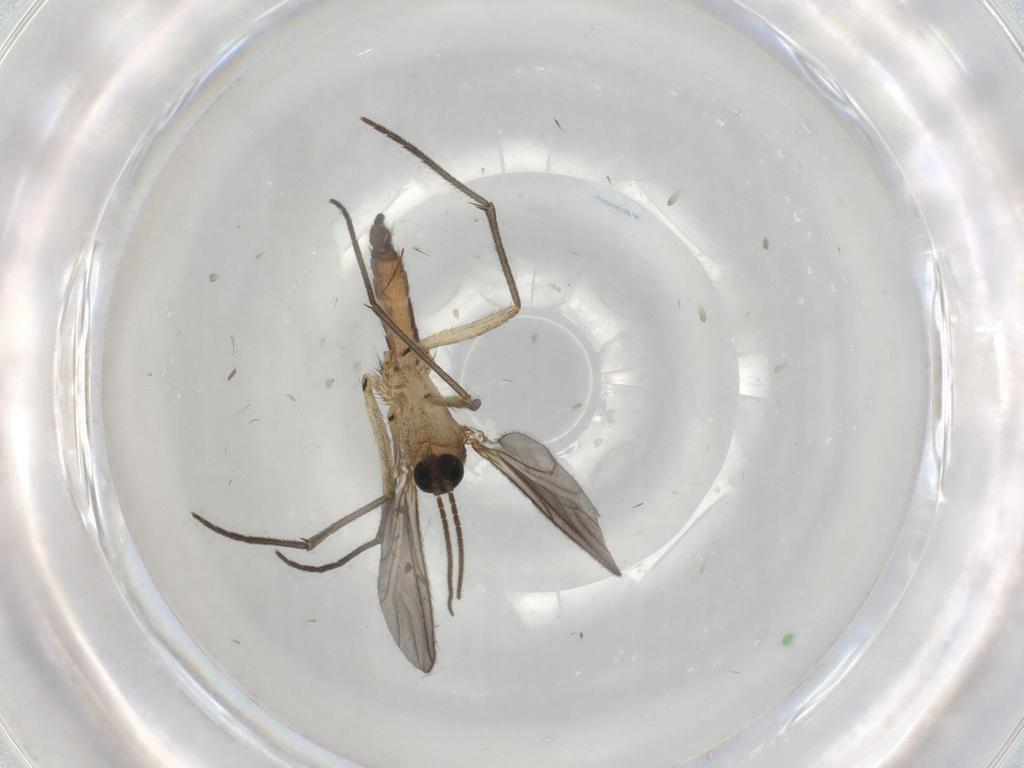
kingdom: Animalia
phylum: Arthropoda
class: Insecta
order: Diptera
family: Sciaridae
